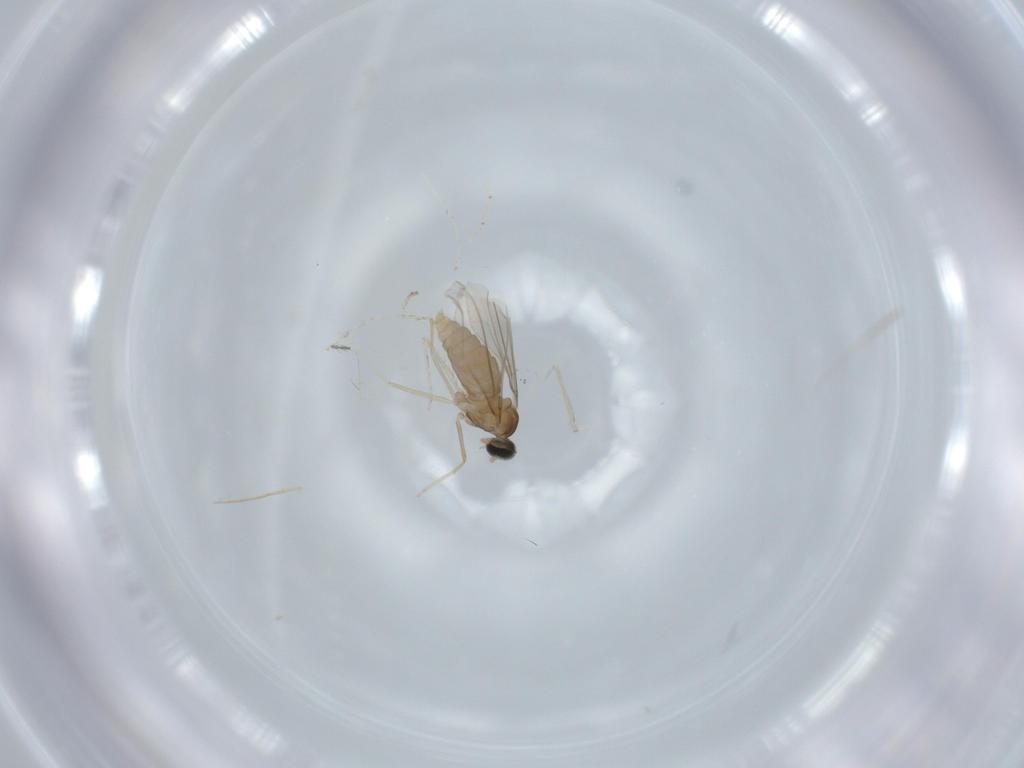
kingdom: Animalia
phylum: Arthropoda
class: Insecta
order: Diptera
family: Cecidomyiidae
